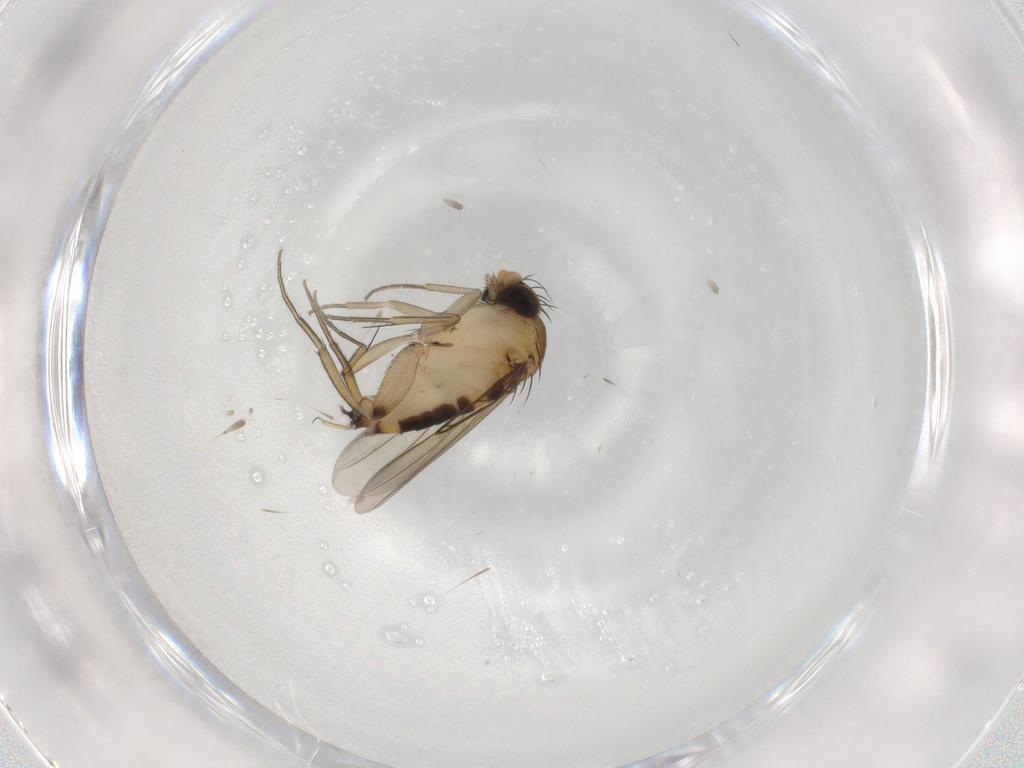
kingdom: Animalia
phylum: Arthropoda
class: Insecta
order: Diptera
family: Phoridae
